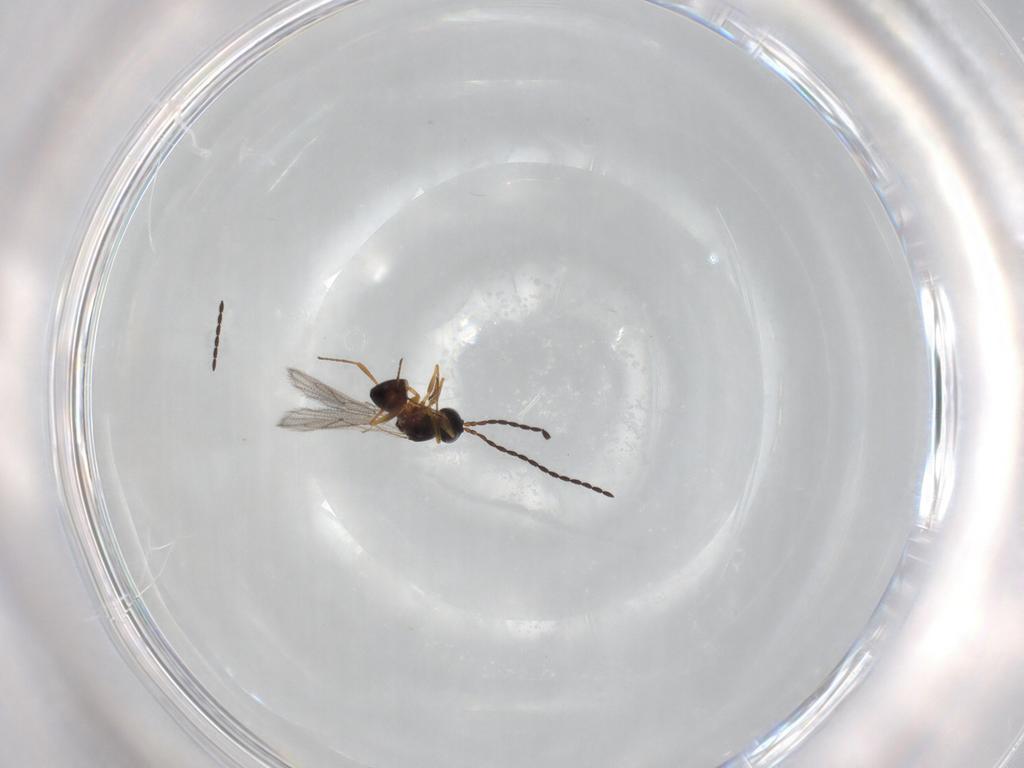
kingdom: Animalia
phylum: Arthropoda
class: Insecta
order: Hymenoptera
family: Figitidae
